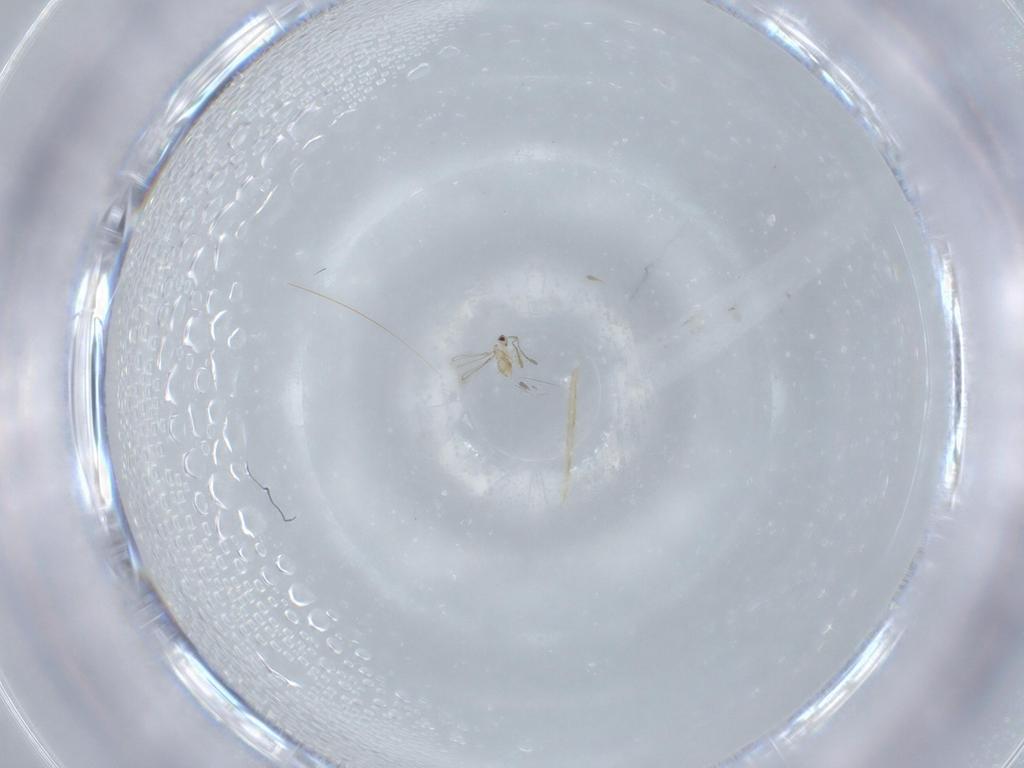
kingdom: Animalia
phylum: Arthropoda
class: Insecta
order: Hymenoptera
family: Mymaridae
